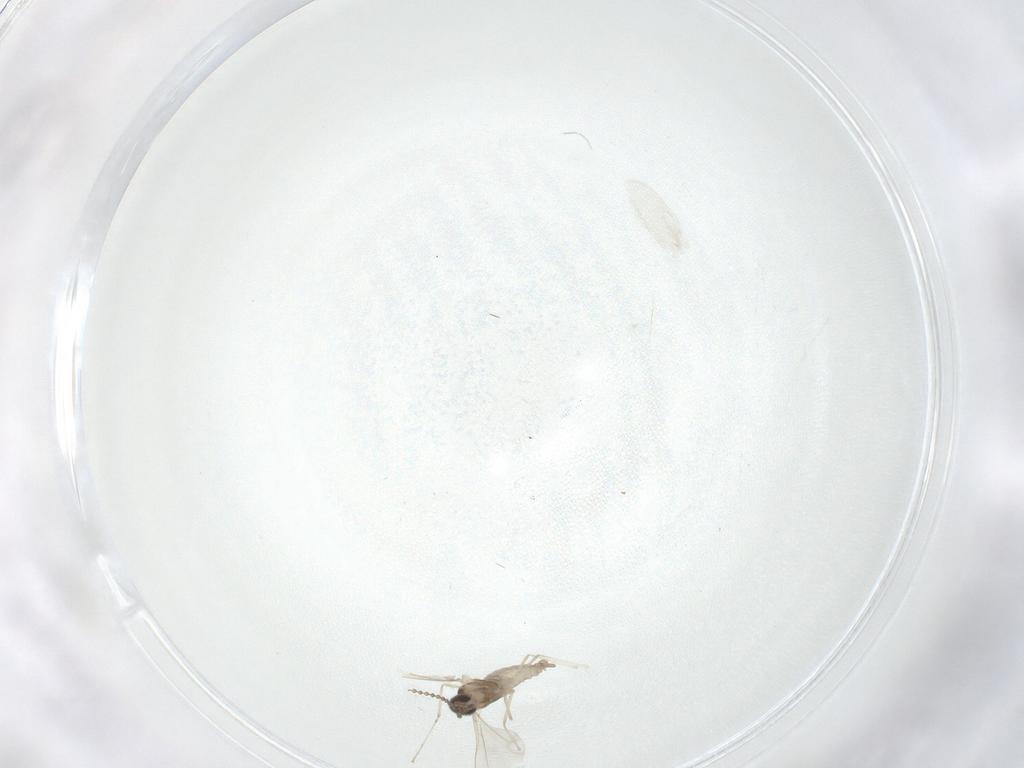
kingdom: Animalia
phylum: Arthropoda
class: Insecta
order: Diptera
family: Cecidomyiidae
